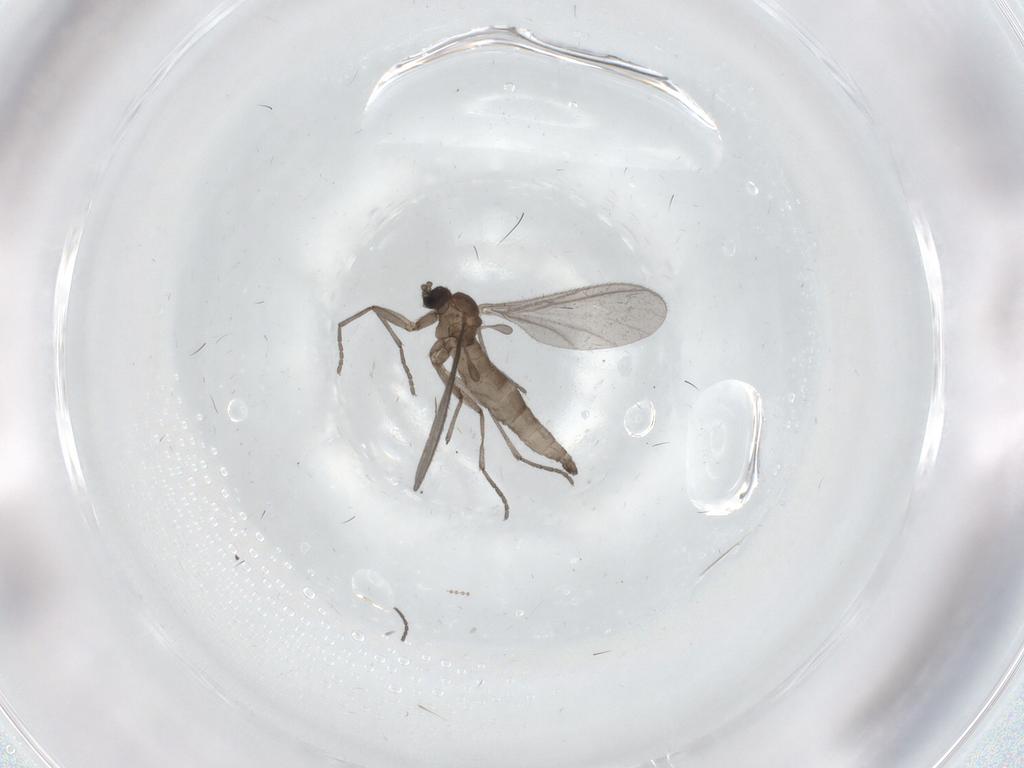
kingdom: Animalia
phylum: Arthropoda
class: Insecta
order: Diptera
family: Sciaridae
